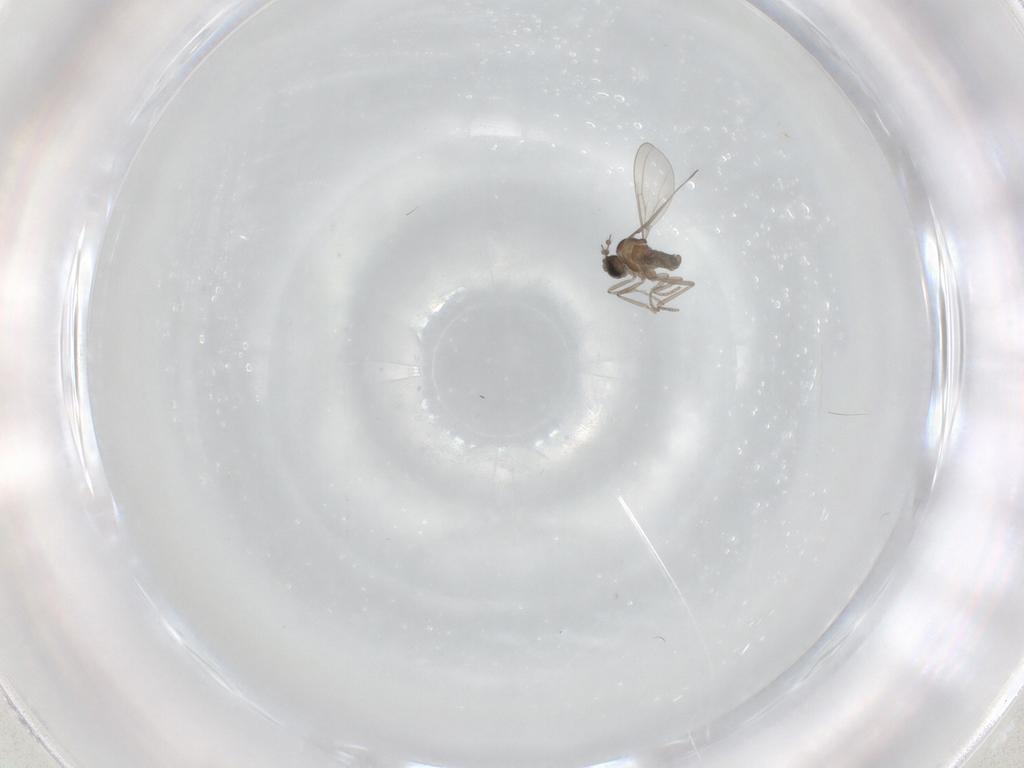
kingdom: Animalia
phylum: Arthropoda
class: Insecta
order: Diptera
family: Cecidomyiidae
